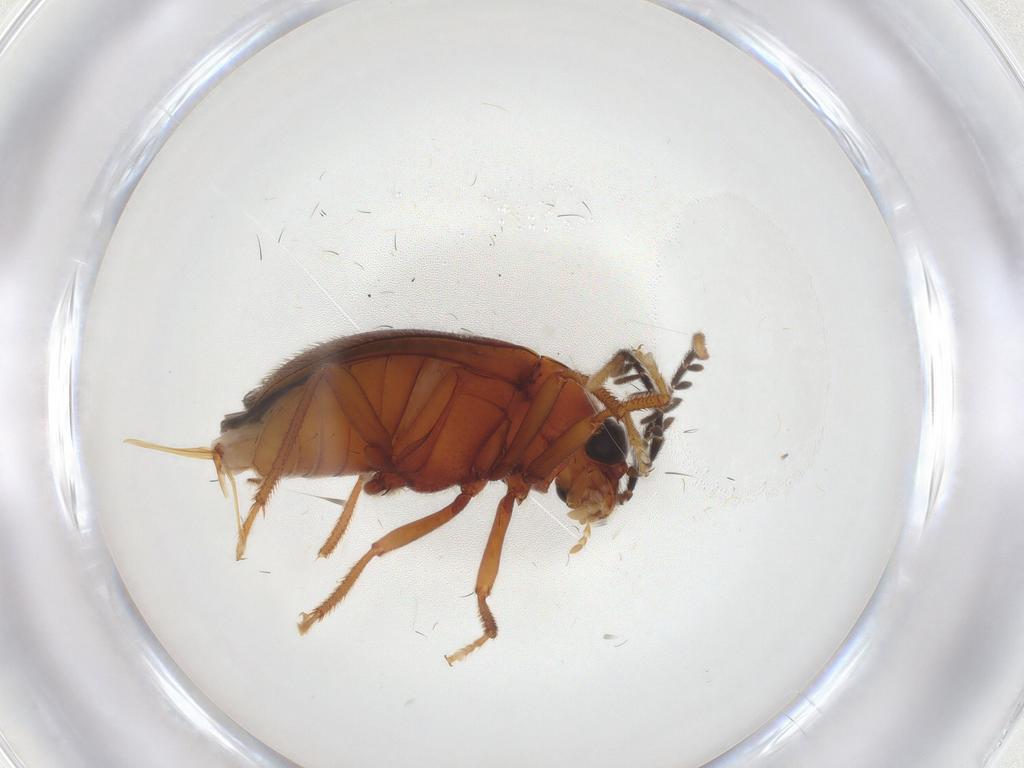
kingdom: Animalia
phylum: Arthropoda
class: Insecta
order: Coleoptera
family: Ptilodactylidae
